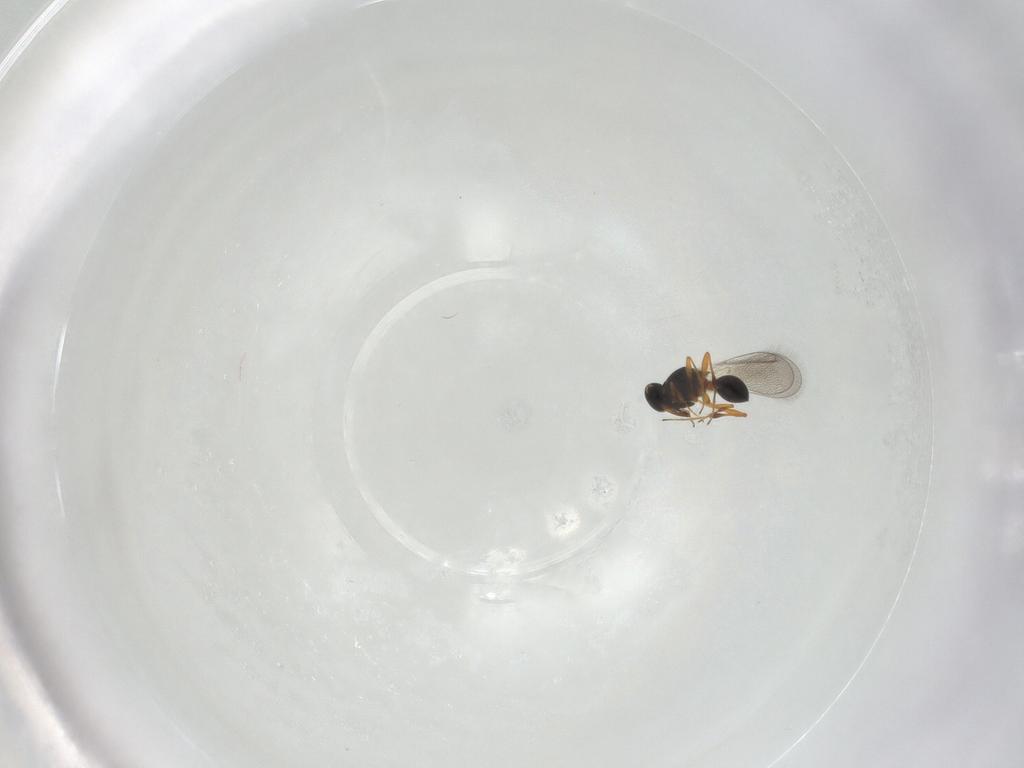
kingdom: Animalia
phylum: Arthropoda
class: Insecta
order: Hymenoptera
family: Platygastridae
